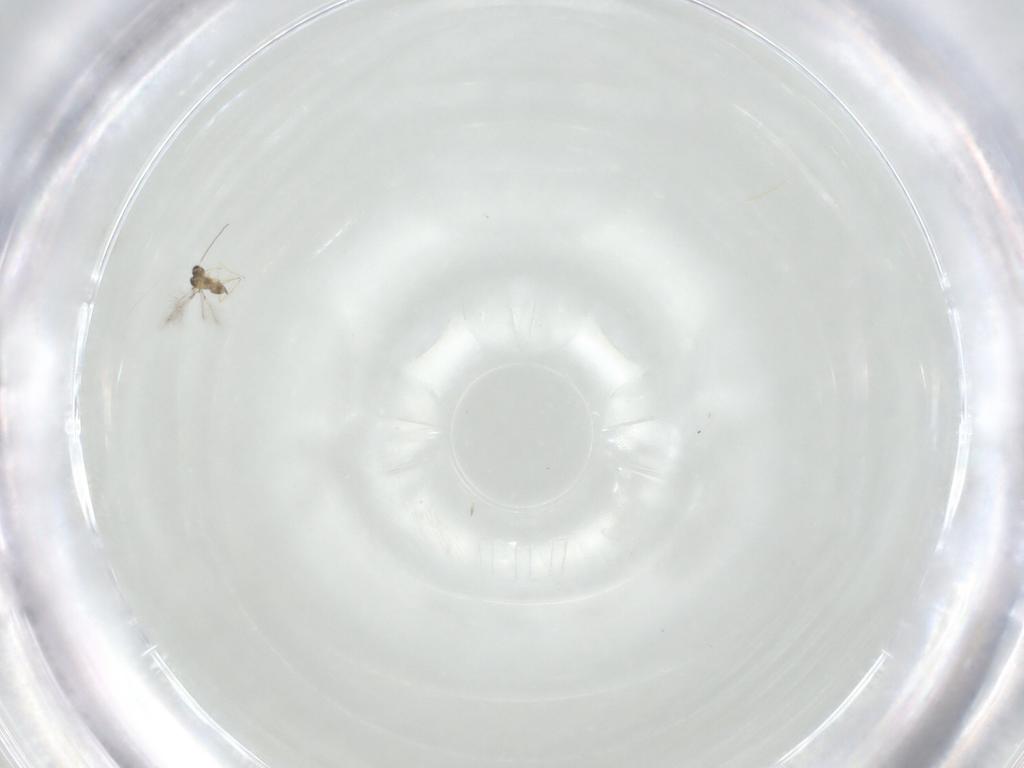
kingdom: Animalia
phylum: Arthropoda
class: Insecta
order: Hymenoptera
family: Mymaridae
